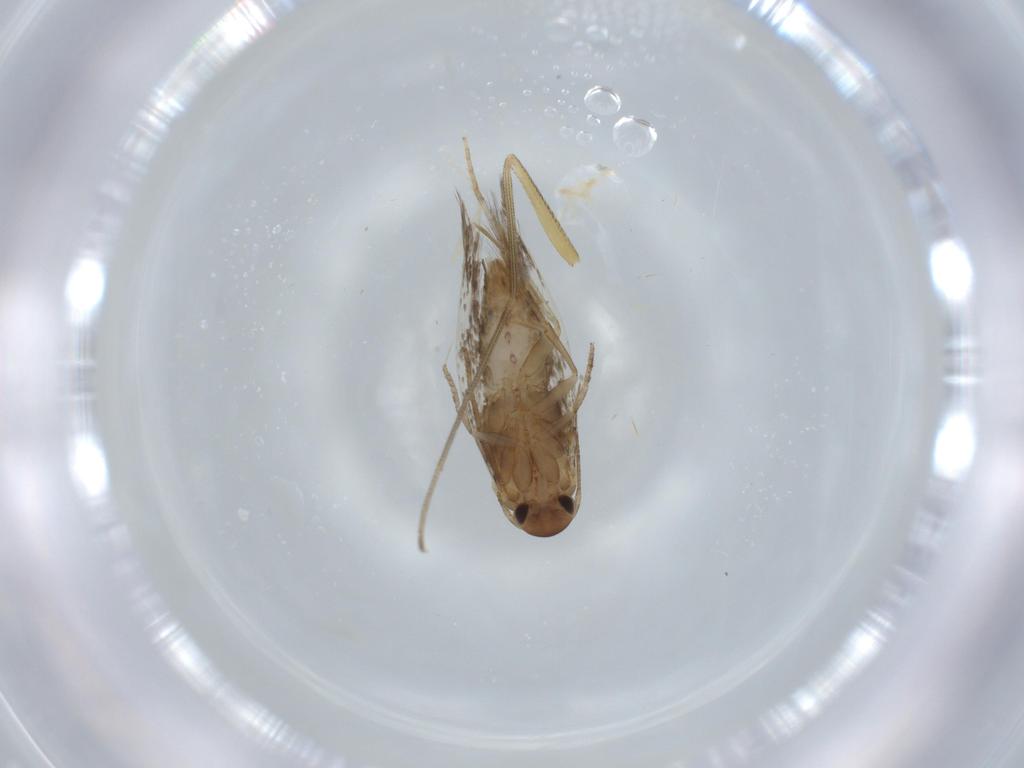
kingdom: Animalia
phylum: Arthropoda
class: Insecta
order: Lepidoptera
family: Gelechiidae
